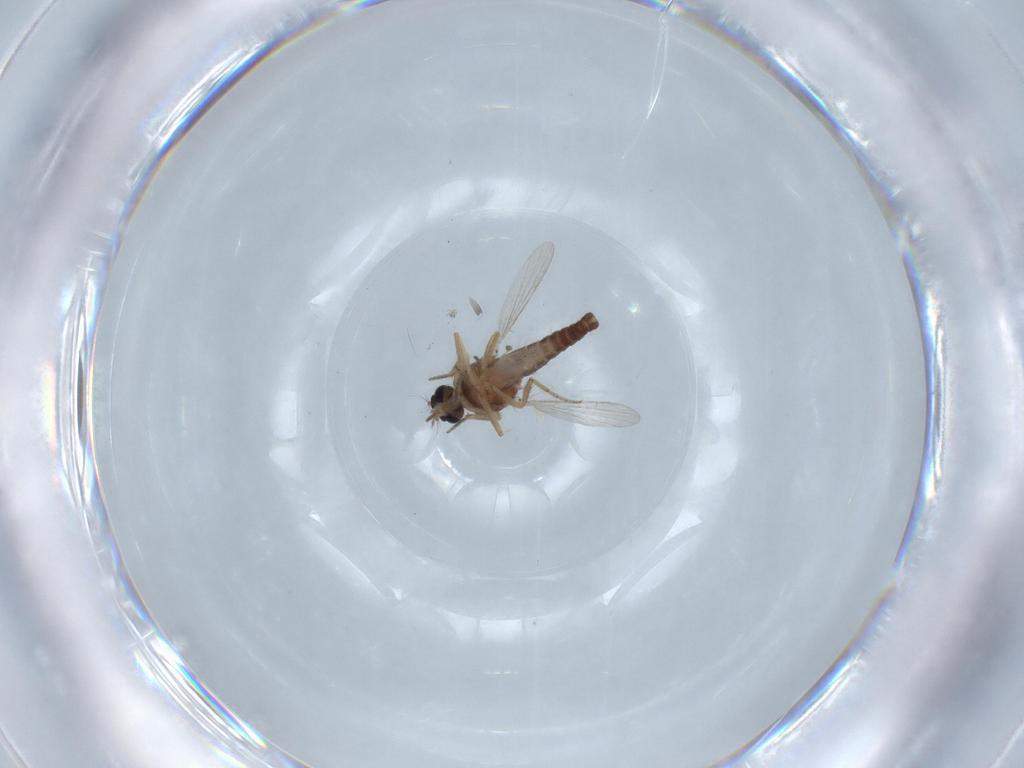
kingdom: Animalia
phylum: Arthropoda
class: Insecta
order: Diptera
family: Ceratopogonidae
